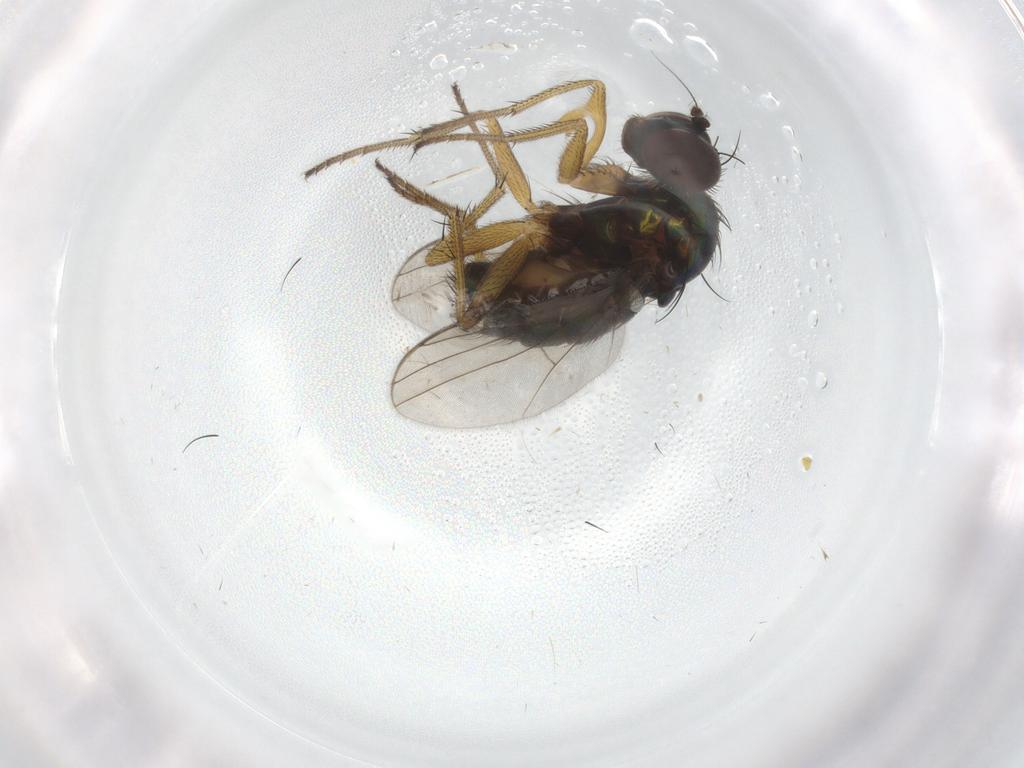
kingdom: Animalia
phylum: Arthropoda
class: Insecta
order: Diptera
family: Dolichopodidae
